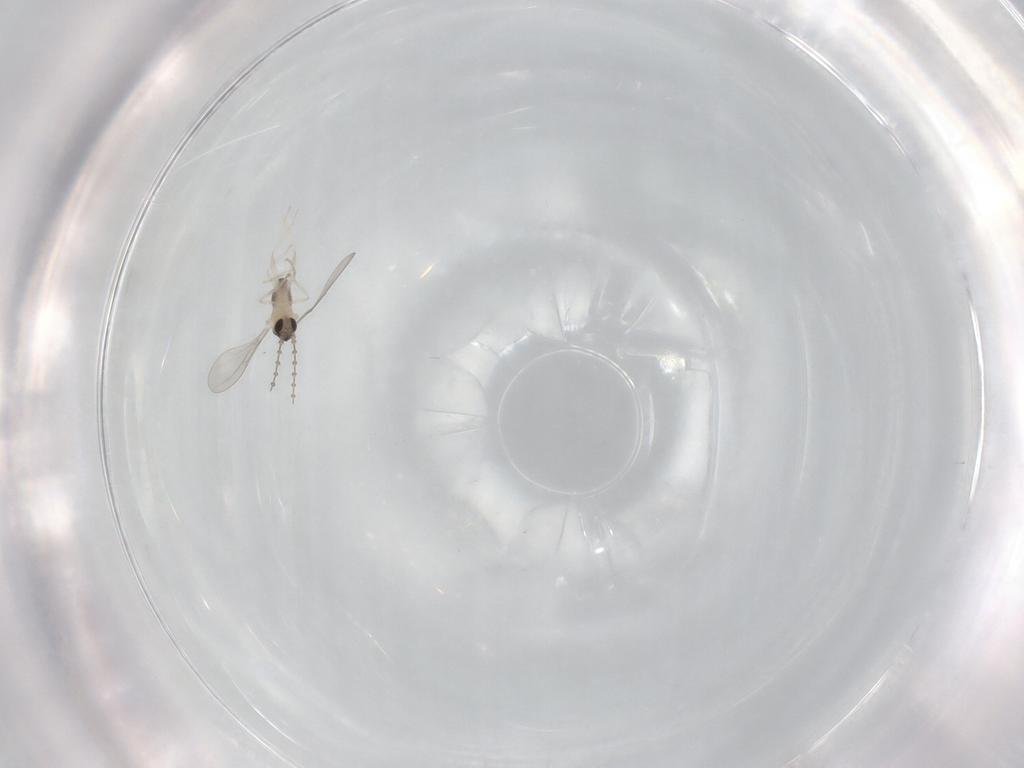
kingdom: Animalia
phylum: Arthropoda
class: Insecta
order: Diptera
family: Cecidomyiidae
